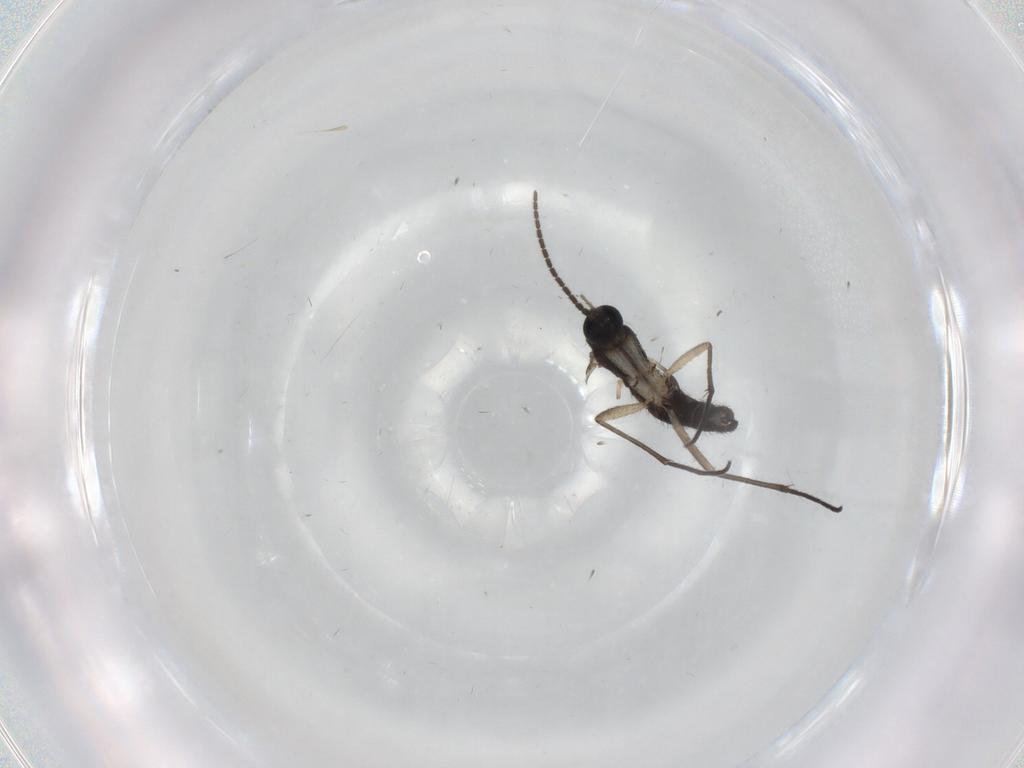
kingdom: Animalia
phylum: Arthropoda
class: Insecta
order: Diptera
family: Sciaridae
